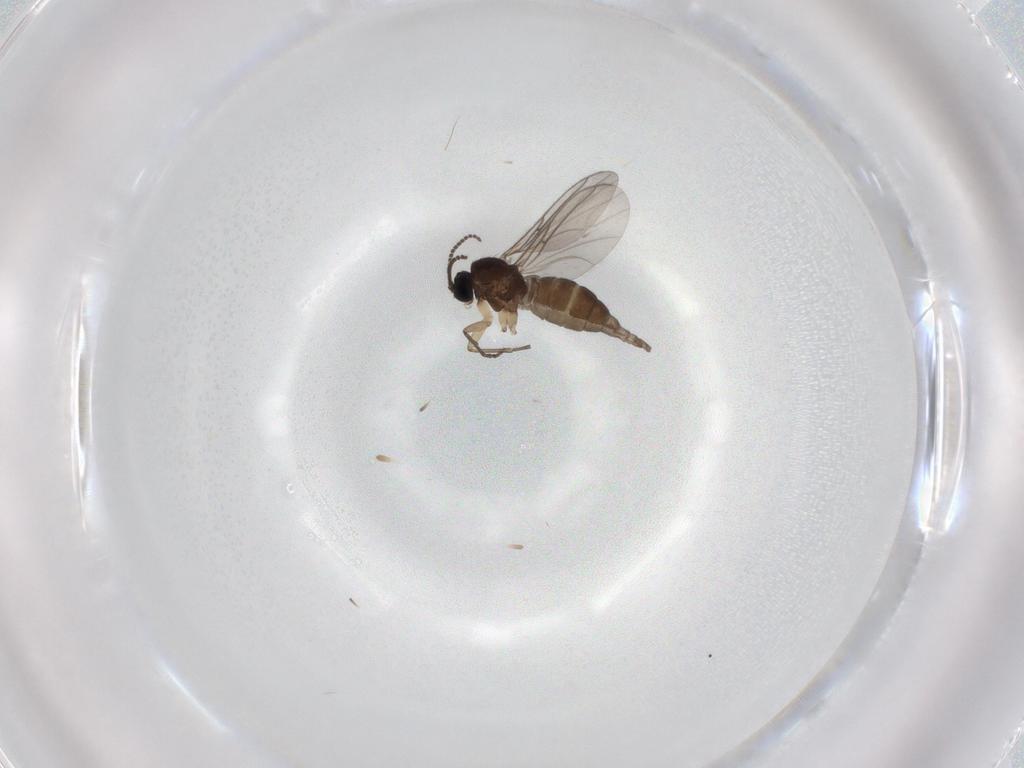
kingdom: Animalia
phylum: Arthropoda
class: Insecta
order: Diptera
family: Sciaridae
